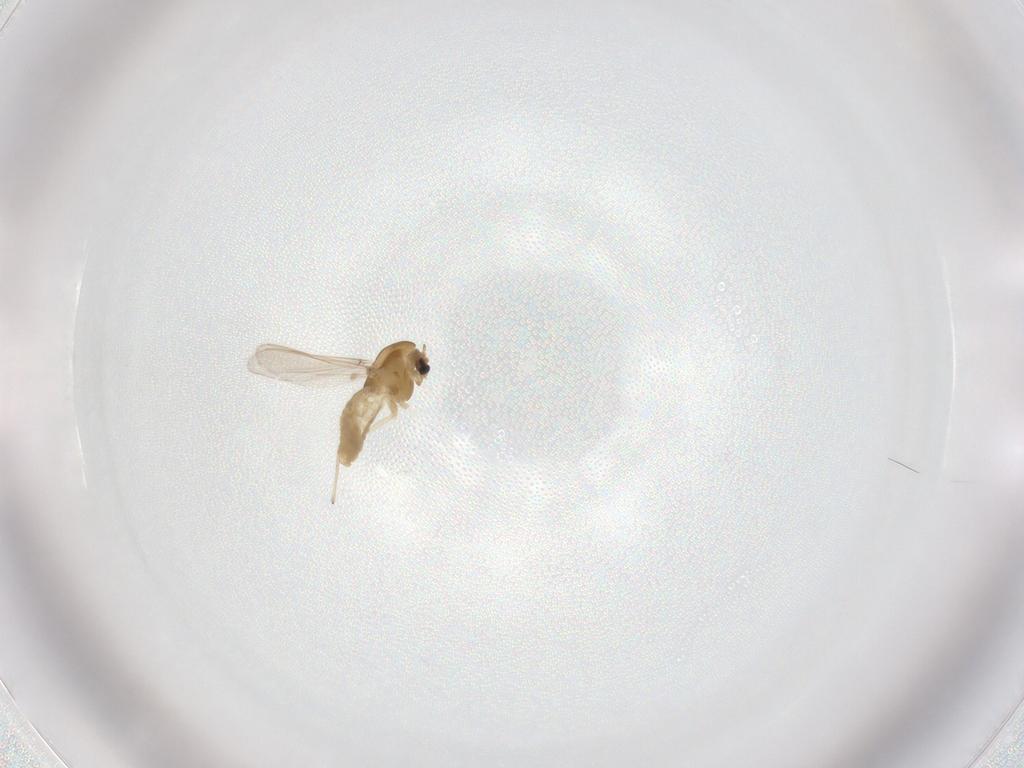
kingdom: Animalia
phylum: Arthropoda
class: Insecta
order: Diptera
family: Chironomidae
